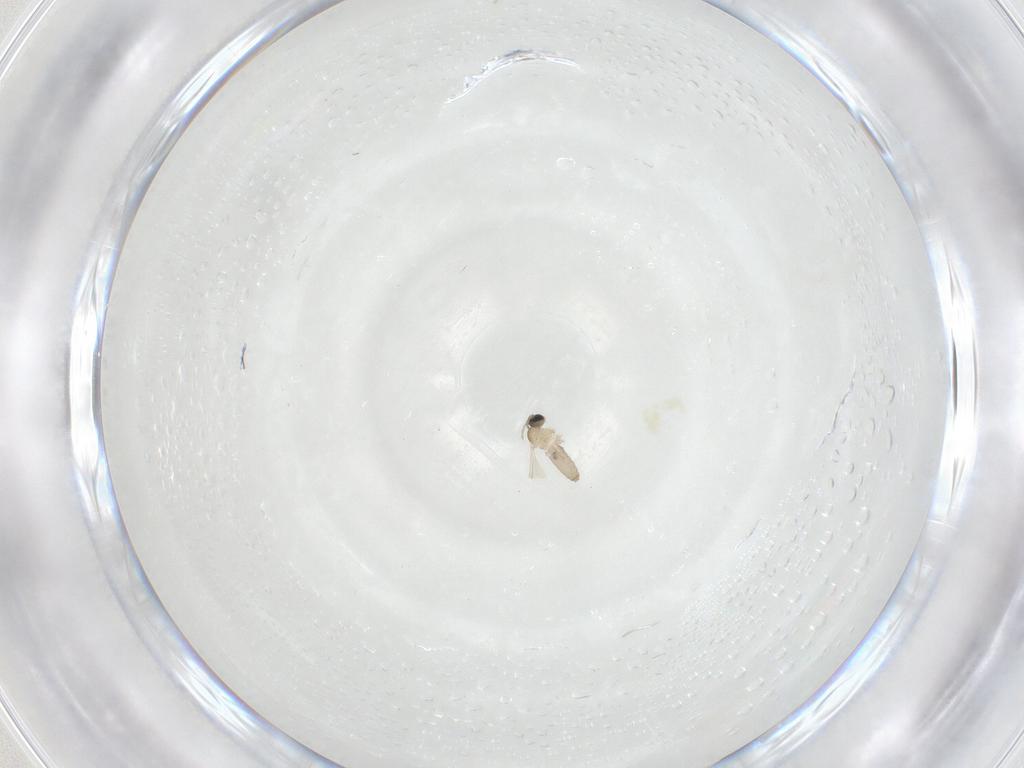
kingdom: Animalia
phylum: Arthropoda
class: Insecta
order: Diptera
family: Sciaridae
